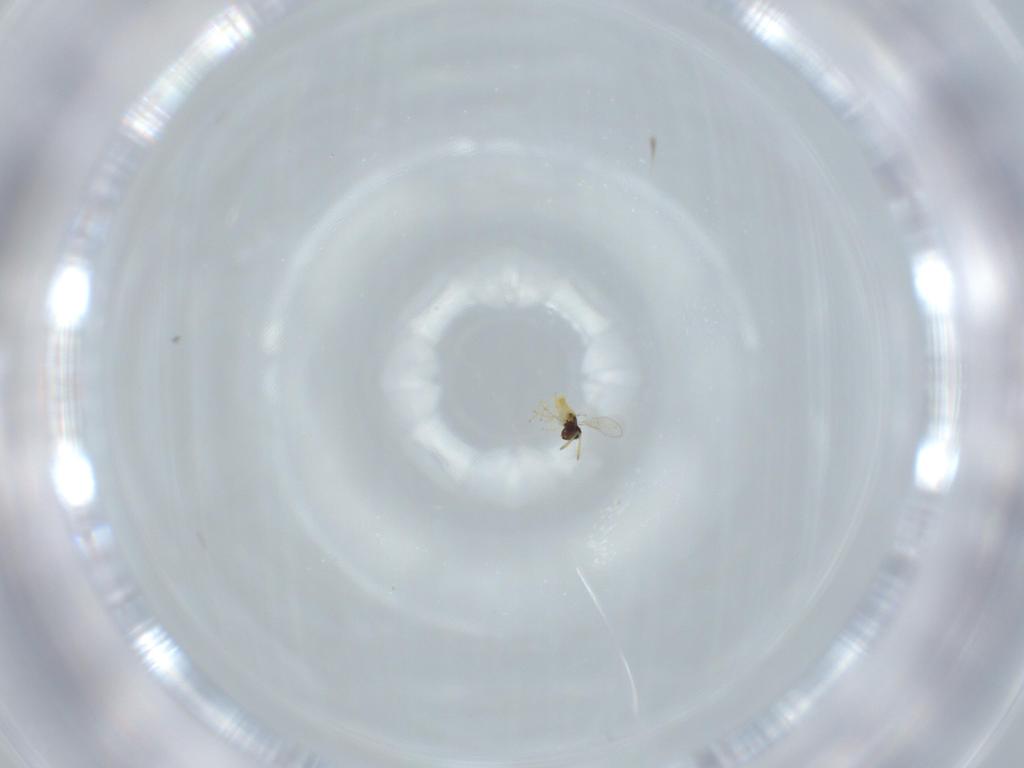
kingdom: Animalia
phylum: Arthropoda
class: Insecta
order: Hymenoptera
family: Aphelinidae
